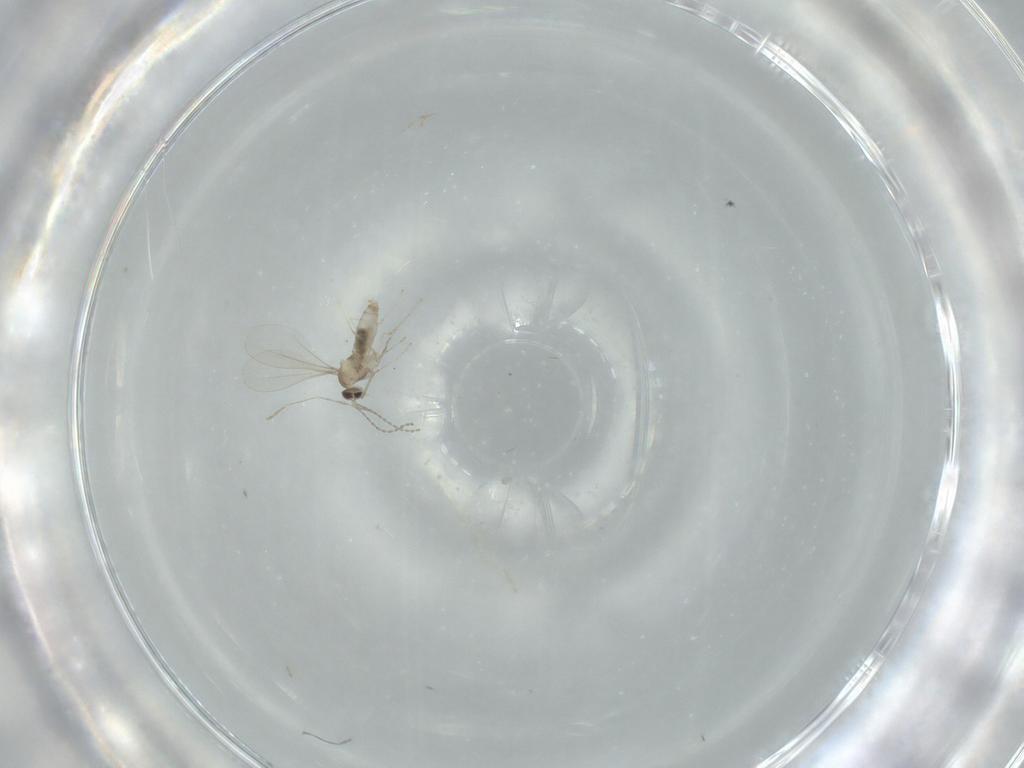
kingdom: Animalia
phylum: Arthropoda
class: Insecta
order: Diptera
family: Cecidomyiidae
